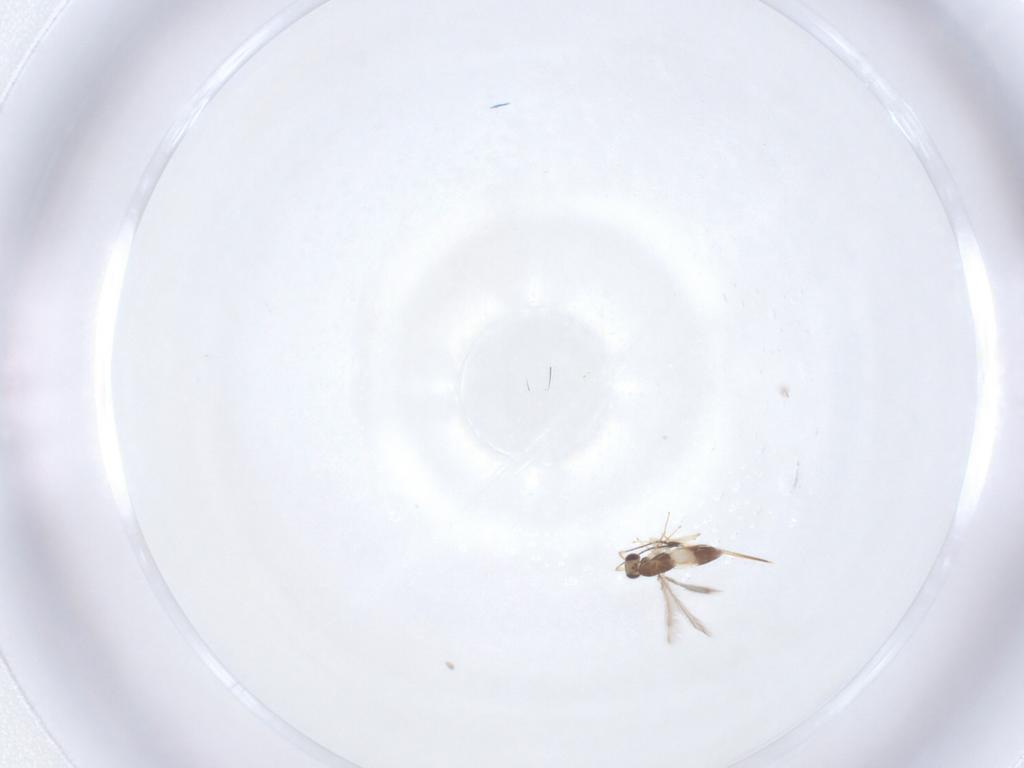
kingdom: Animalia
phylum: Arthropoda
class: Insecta
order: Hymenoptera
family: Mymaridae
